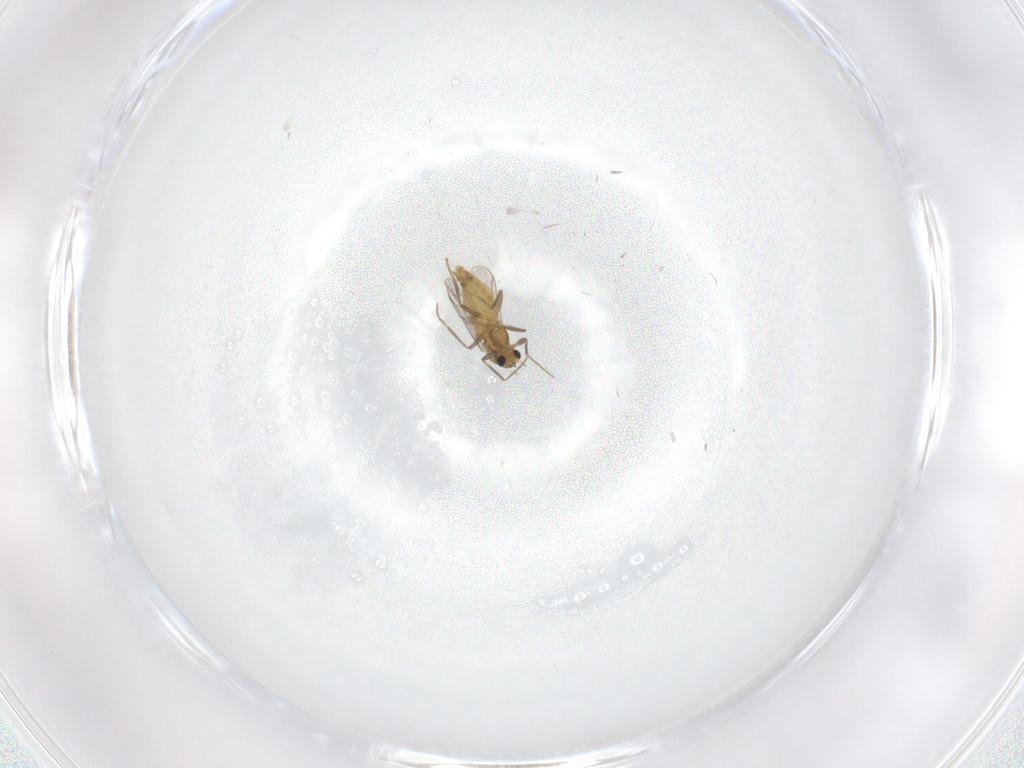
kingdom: Animalia
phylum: Arthropoda
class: Insecta
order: Diptera
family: Chironomidae
